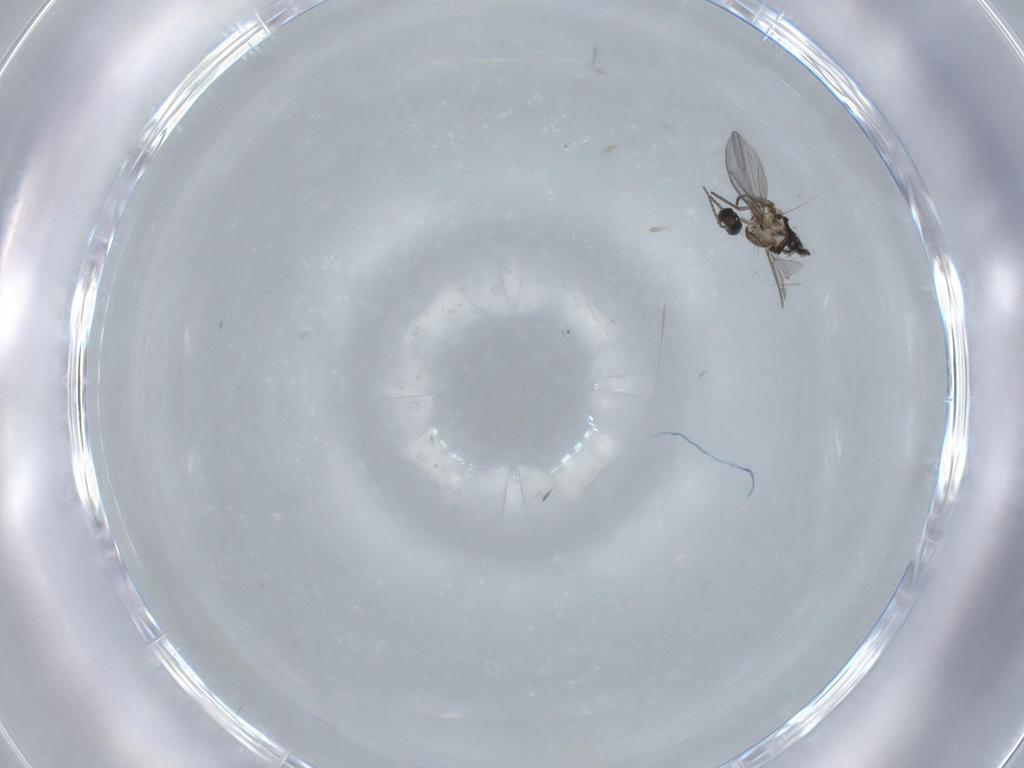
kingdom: Animalia
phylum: Arthropoda
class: Insecta
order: Diptera
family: Sciaridae
